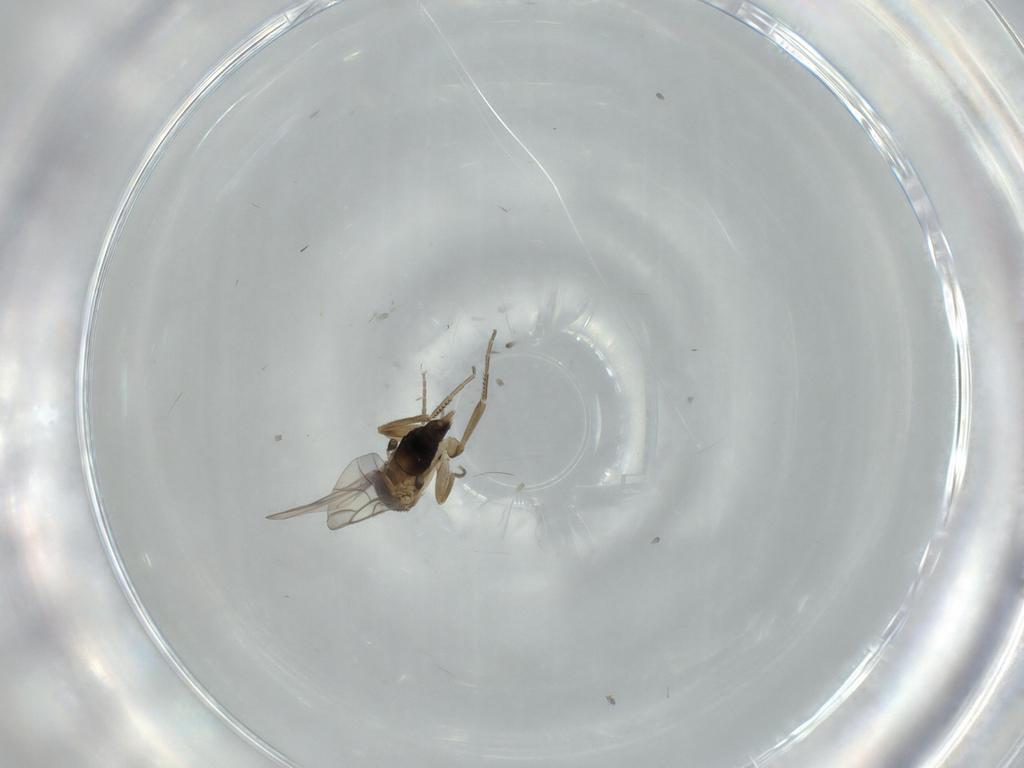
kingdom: Animalia
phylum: Arthropoda
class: Insecta
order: Diptera
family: Phoridae
